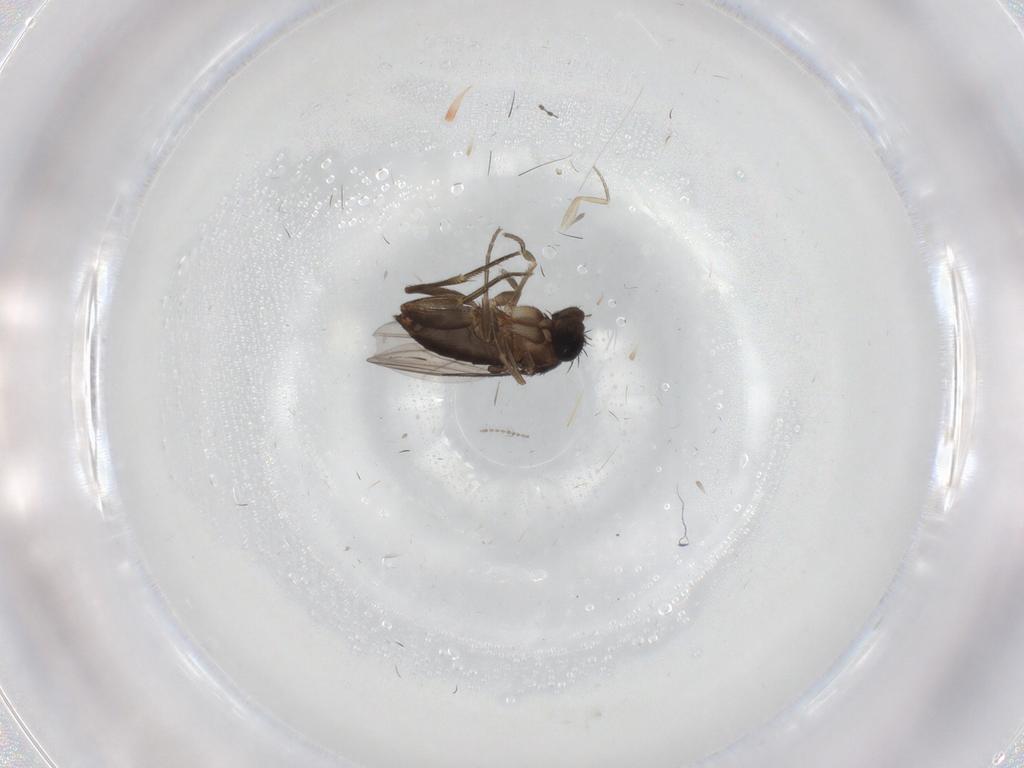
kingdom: Animalia
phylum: Arthropoda
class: Insecta
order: Diptera
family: Phoridae
